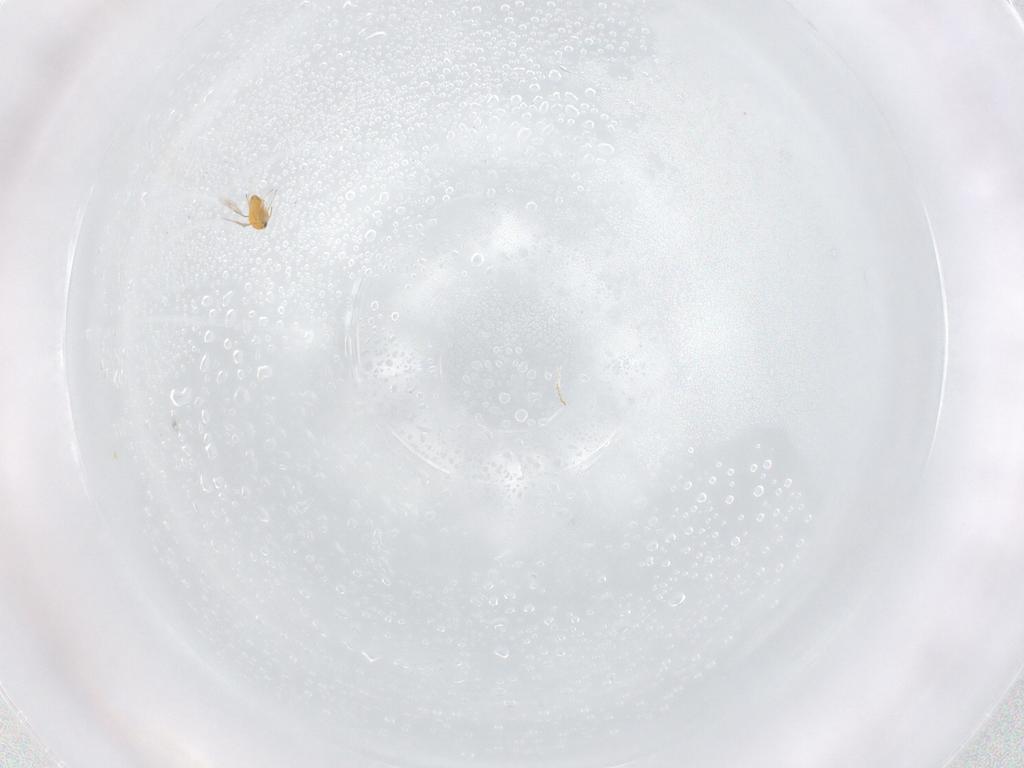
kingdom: Animalia
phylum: Arthropoda
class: Insecta
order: Hymenoptera
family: Trichogrammatidae
